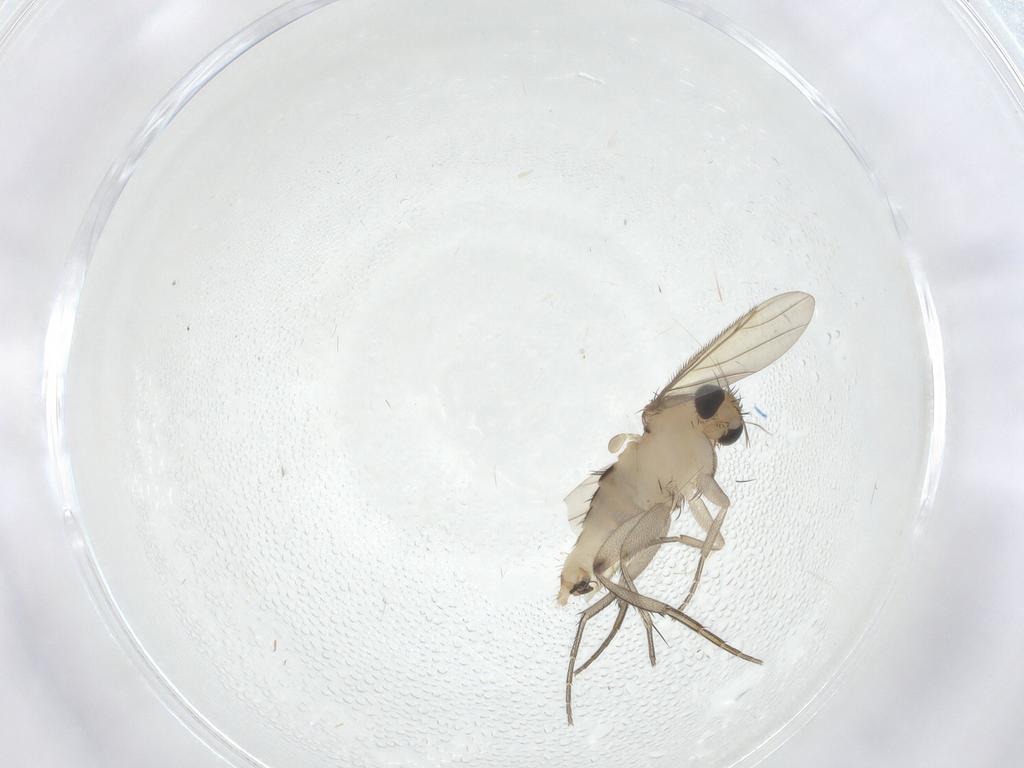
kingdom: Animalia
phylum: Arthropoda
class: Insecta
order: Diptera
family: Phoridae
